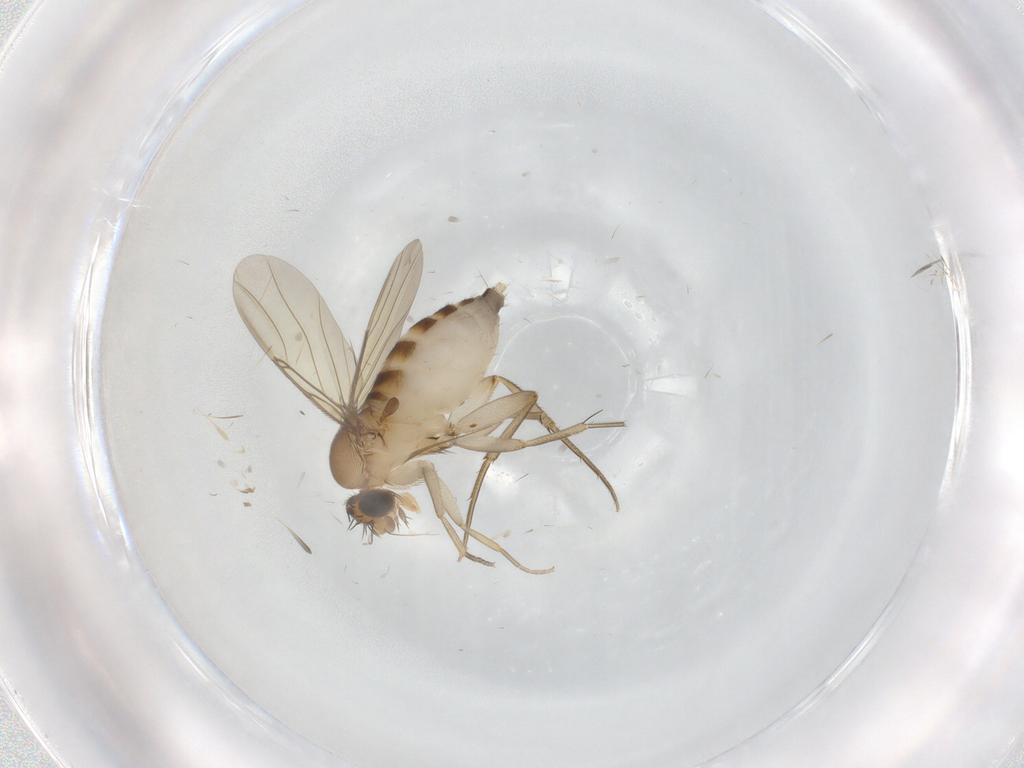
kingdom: Animalia
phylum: Arthropoda
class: Insecta
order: Diptera
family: Phoridae
